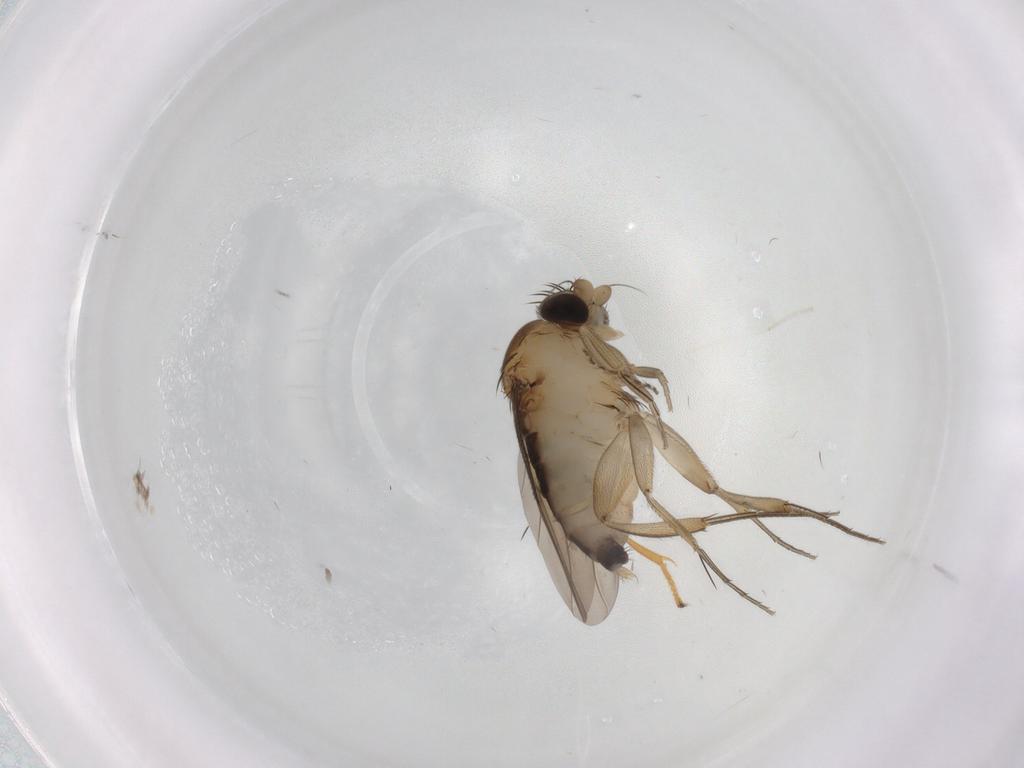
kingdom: Animalia
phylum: Arthropoda
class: Insecta
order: Diptera
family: Phoridae
